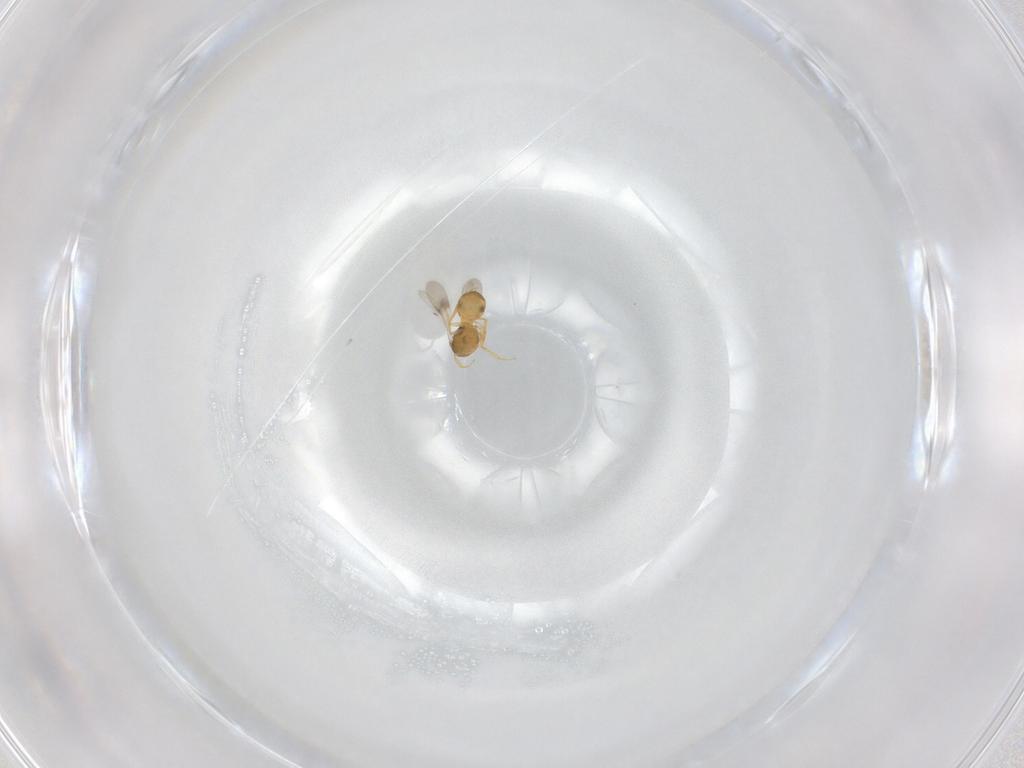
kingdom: Animalia
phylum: Arthropoda
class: Insecta
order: Hymenoptera
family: Scelionidae
